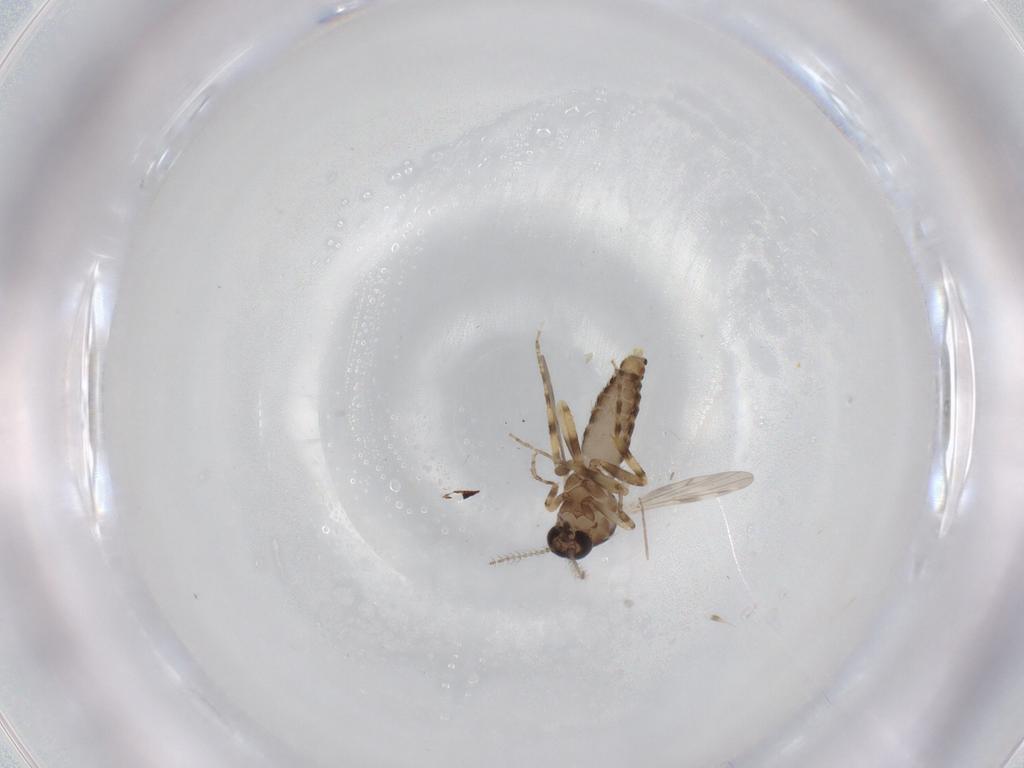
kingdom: Animalia
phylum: Arthropoda
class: Insecta
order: Diptera
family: Ceratopogonidae
